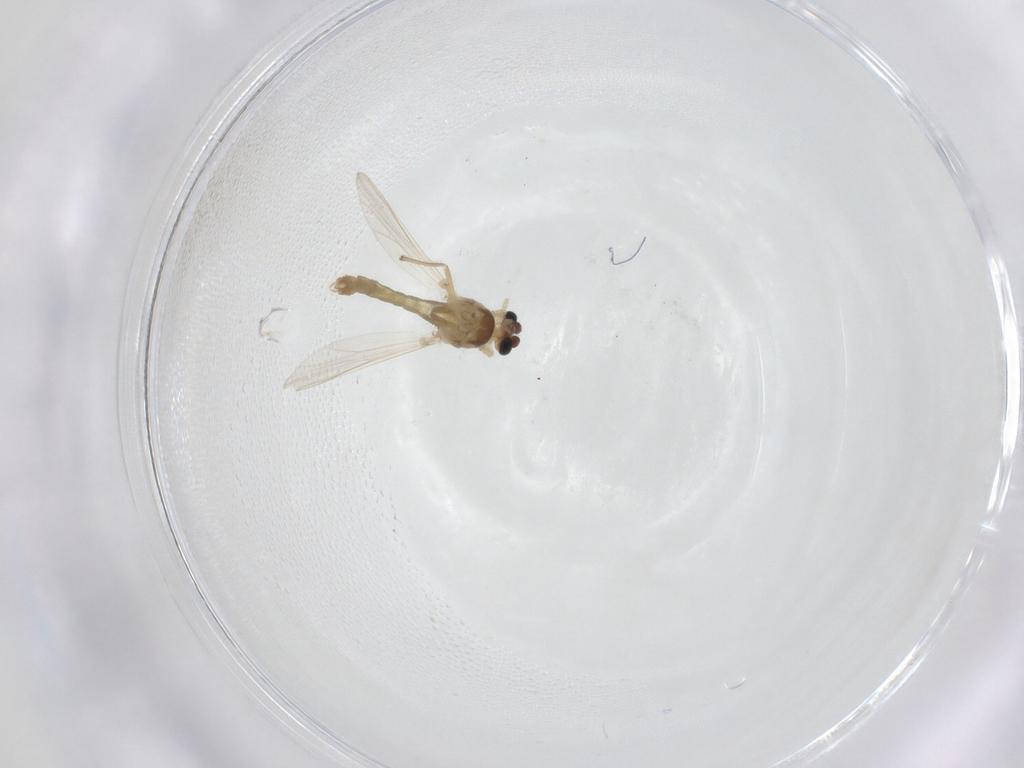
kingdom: Animalia
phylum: Arthropoda
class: Insecta
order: Diptera
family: Chironomidae
